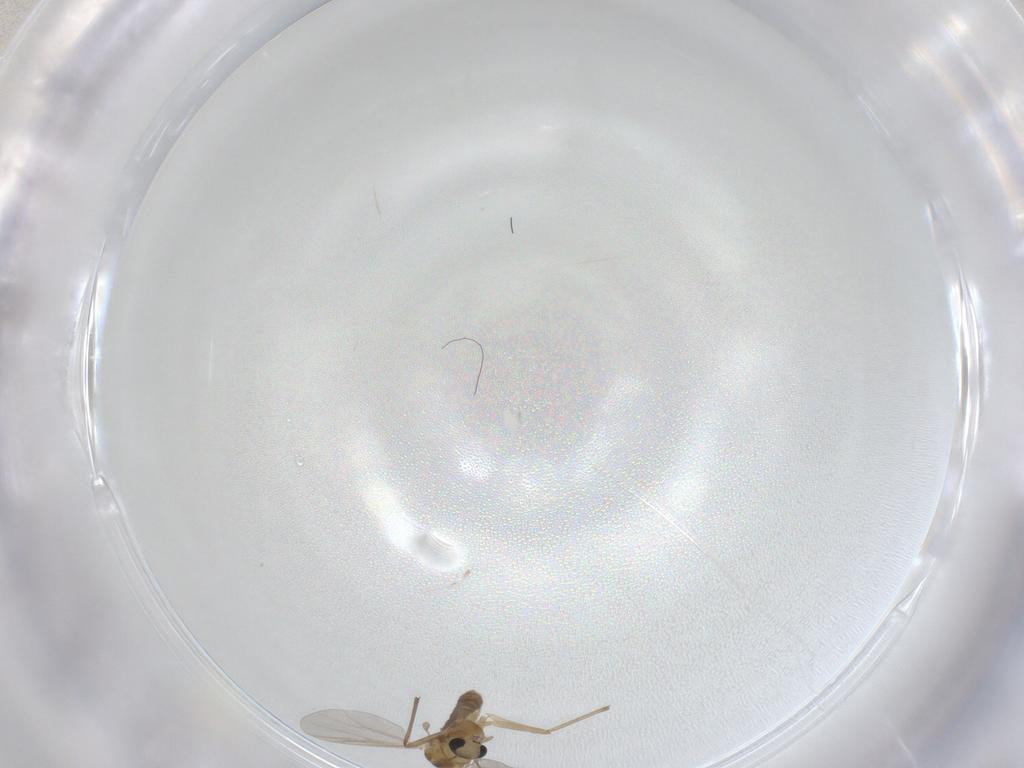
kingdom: Animalia
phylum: Arthropoda
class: Insecta
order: Diptera
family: Chironomidae
